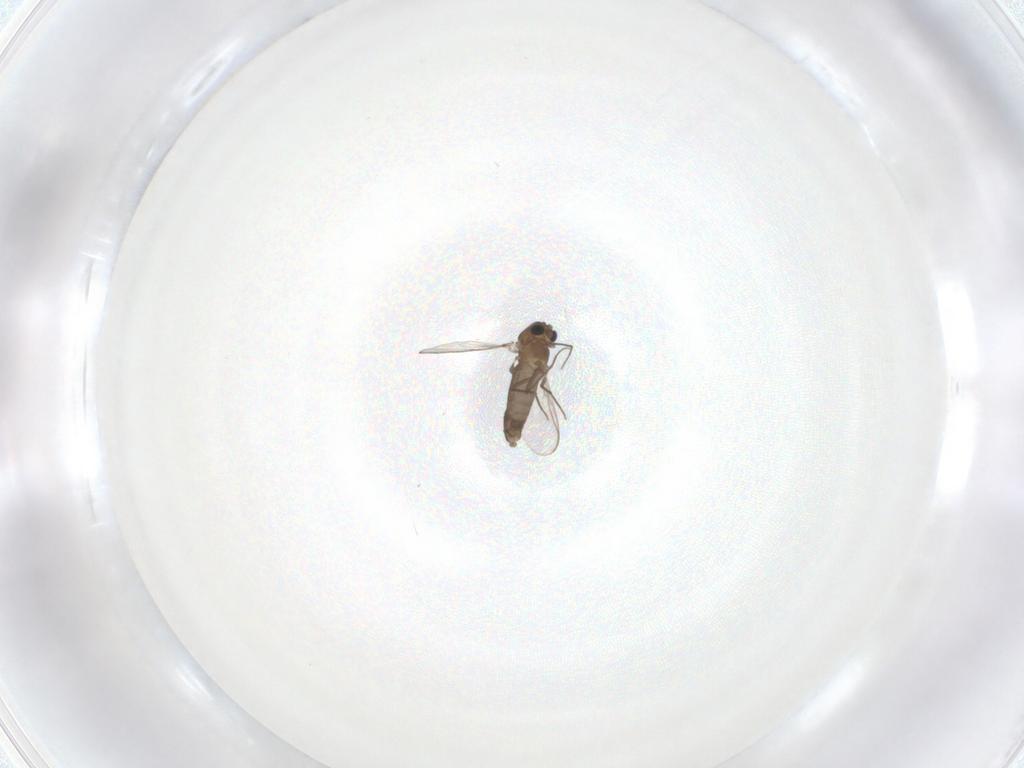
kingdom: Animalia
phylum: Arthropoda
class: Insecta
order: Diptera
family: Chironomidae
